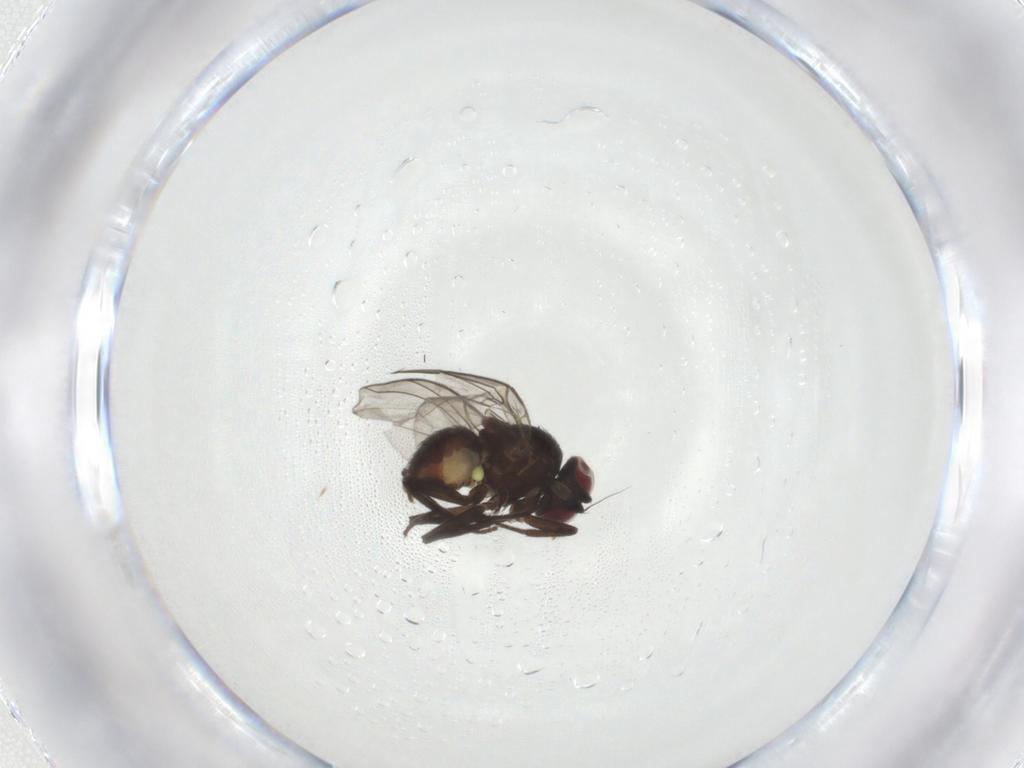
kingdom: Animalia
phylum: Arthropoda
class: Insecta
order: Diptera
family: Agromyzidae
